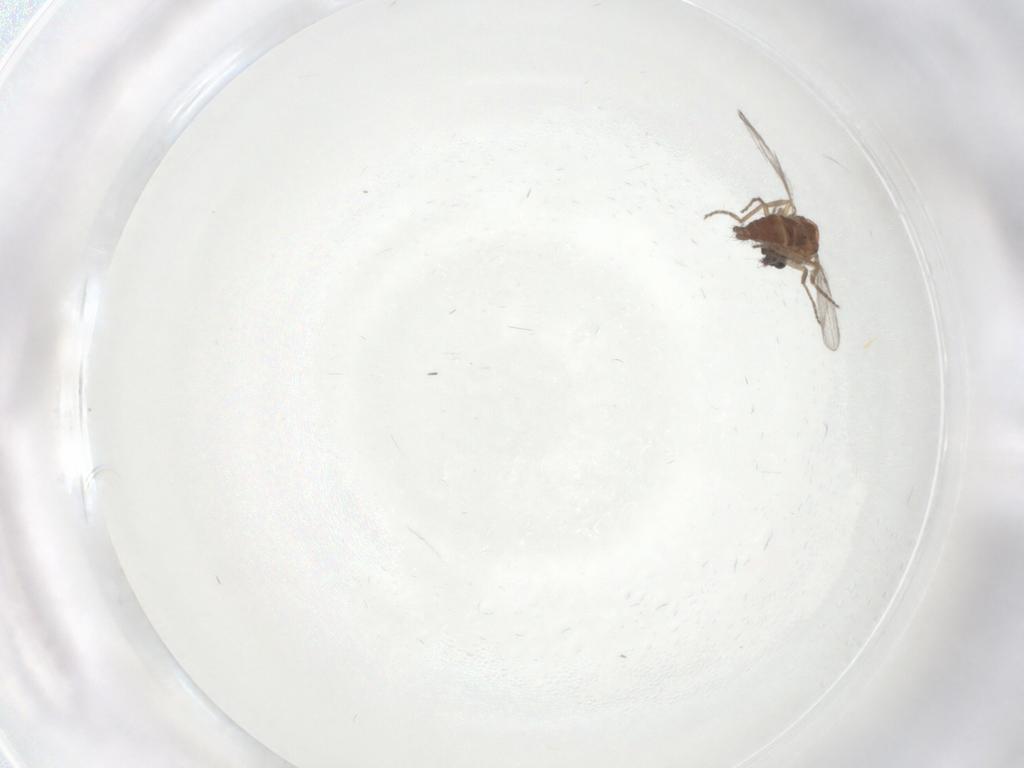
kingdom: Animalia
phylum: Arthropoda
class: Insecta
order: Diptera
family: Ceratopogonidae
